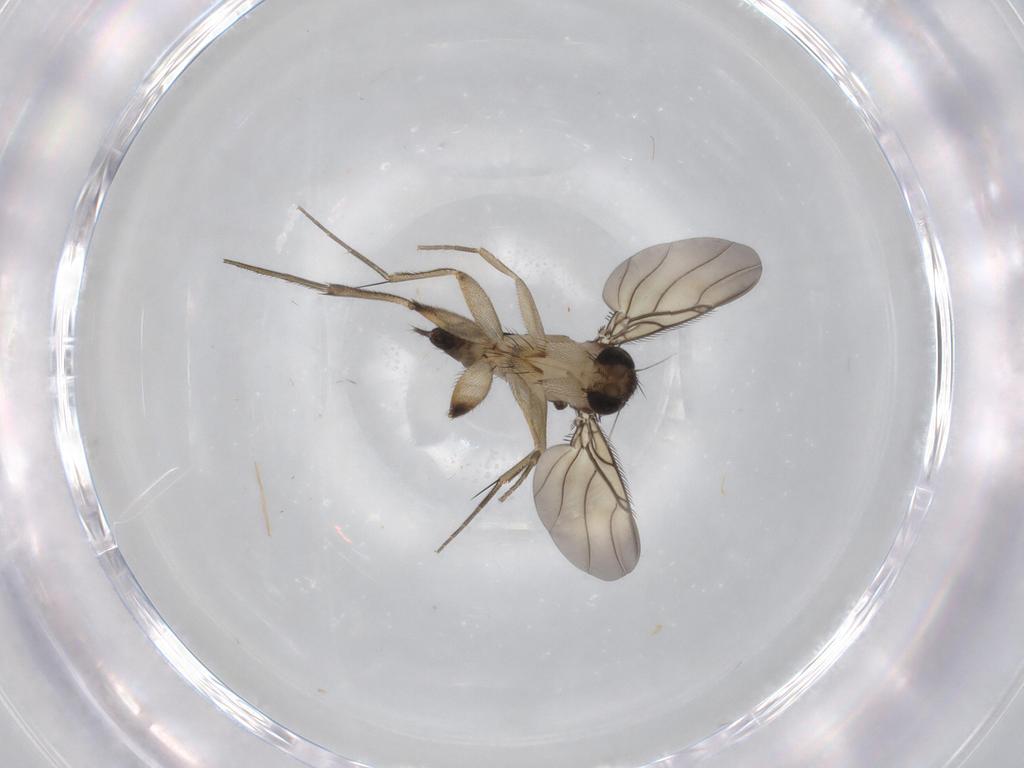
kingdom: Animalia
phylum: Arthropoda
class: Insecta
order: Diptera
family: Phoridae
